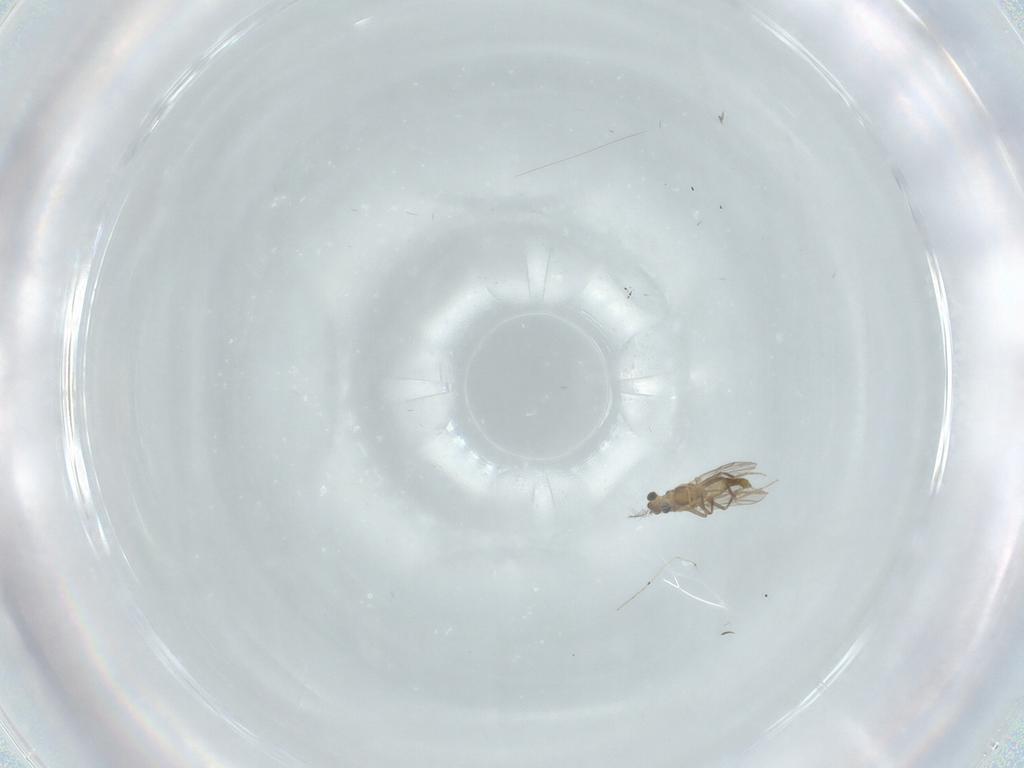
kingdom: Animalia
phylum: Arthropoda
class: Insecta
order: Diptera
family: Chironomidae
